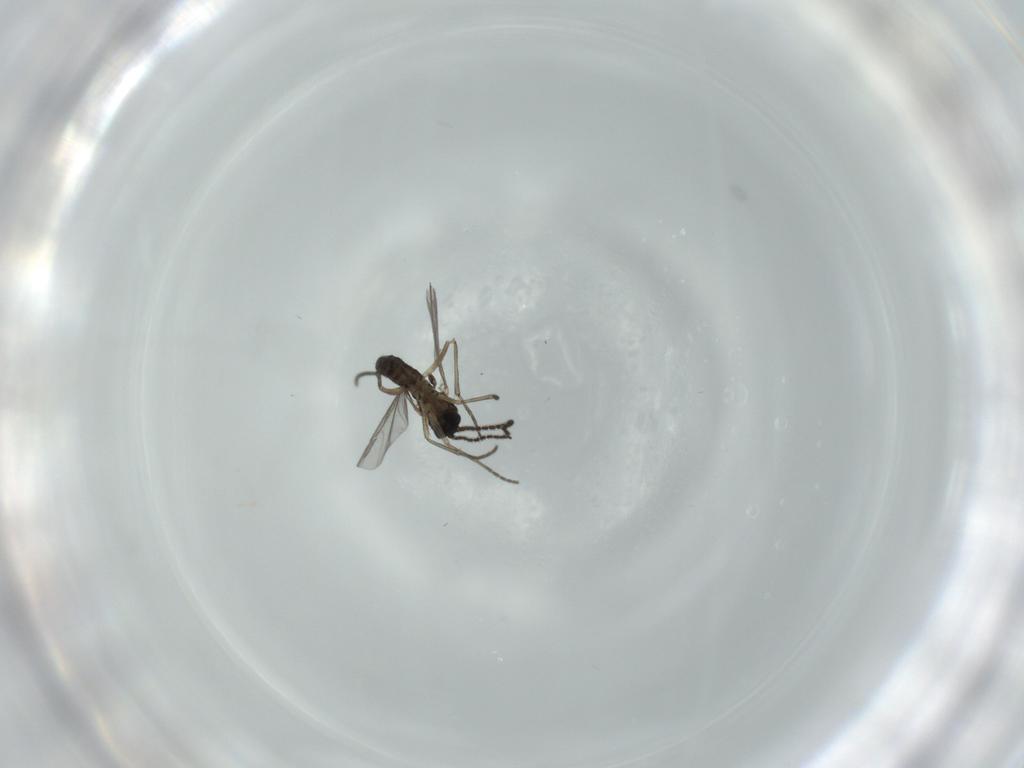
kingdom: Animalia
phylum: Arthropoda
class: Insecta
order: Diptera
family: Sciaridae
